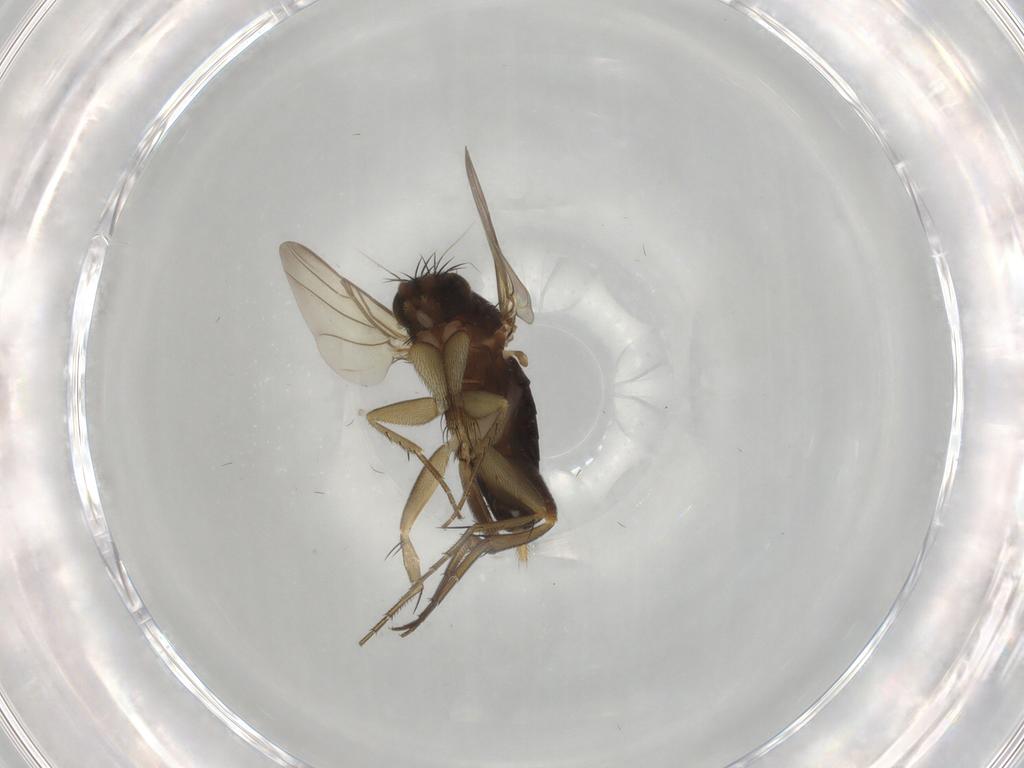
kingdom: Animalia
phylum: Arthropoda
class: Insecta
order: Diptera
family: Phoridae
